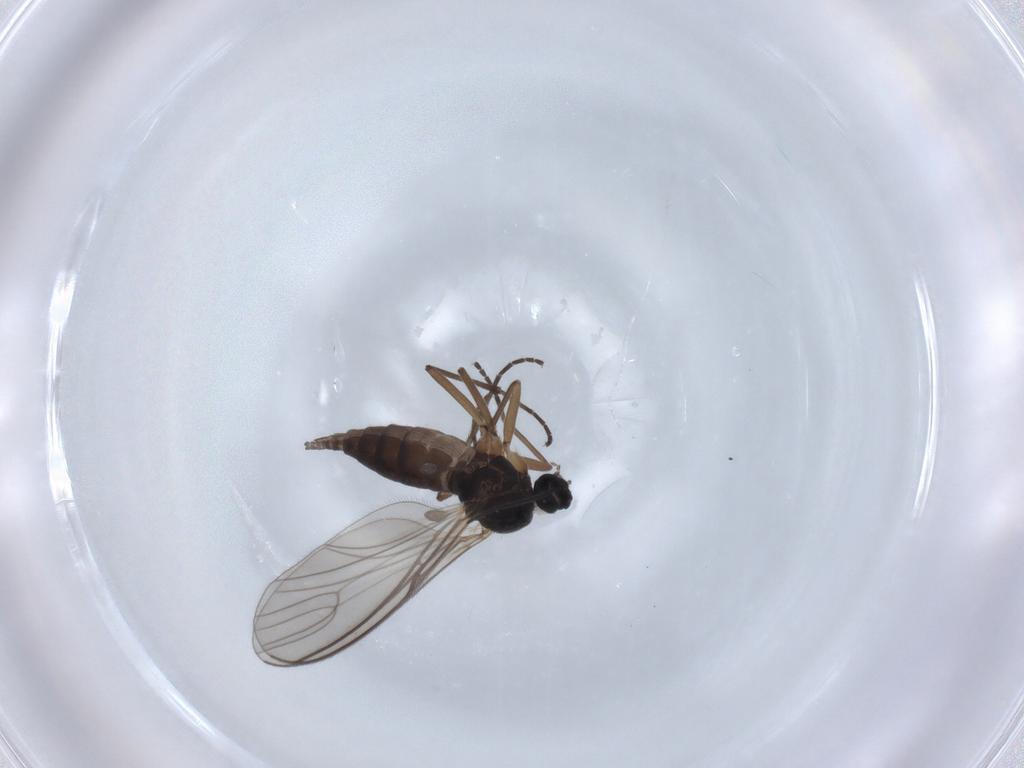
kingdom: Animalia
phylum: Arthropoda
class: Insecta
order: Diptera
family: Sciaridae
